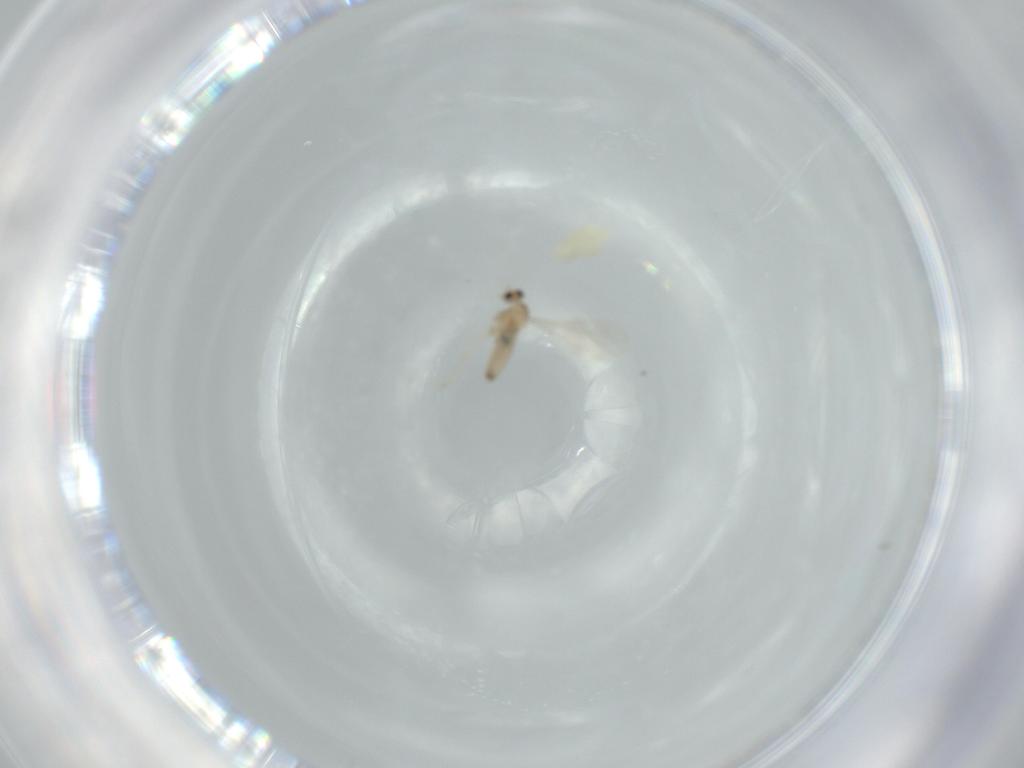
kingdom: Animalia
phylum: Arthropoda
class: Insecta
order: Diptera
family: Cecidomyiidae
